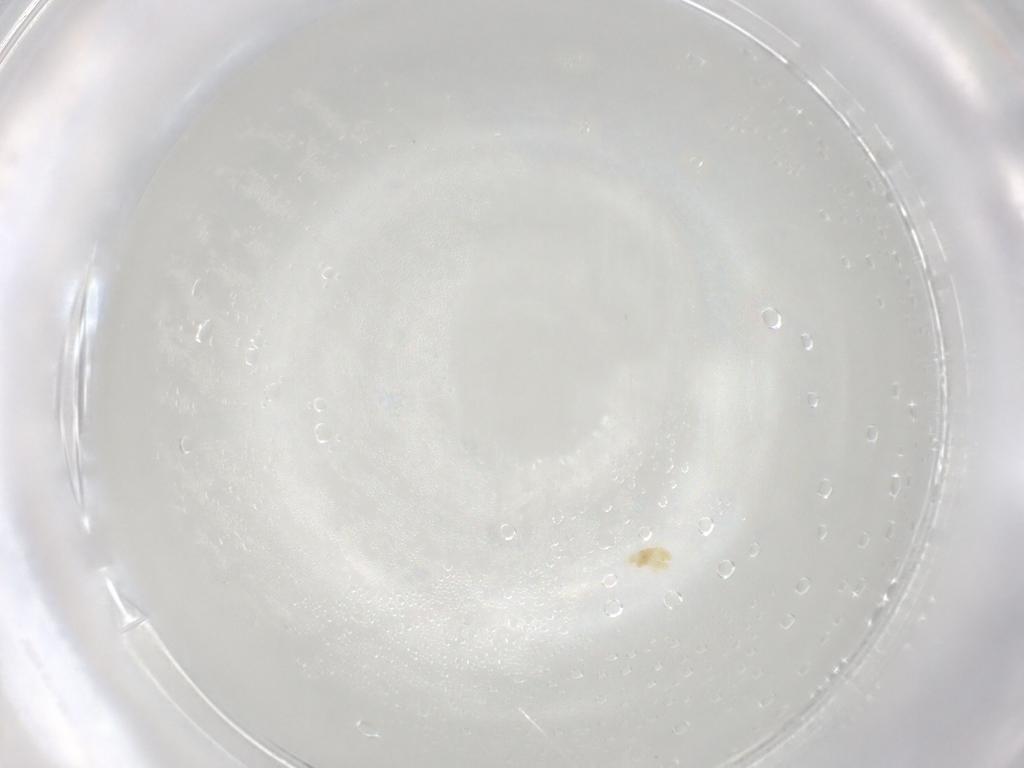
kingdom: Animalia
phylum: Arthropoda
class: Arachnida
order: Trombidiformes
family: Eupodidae
